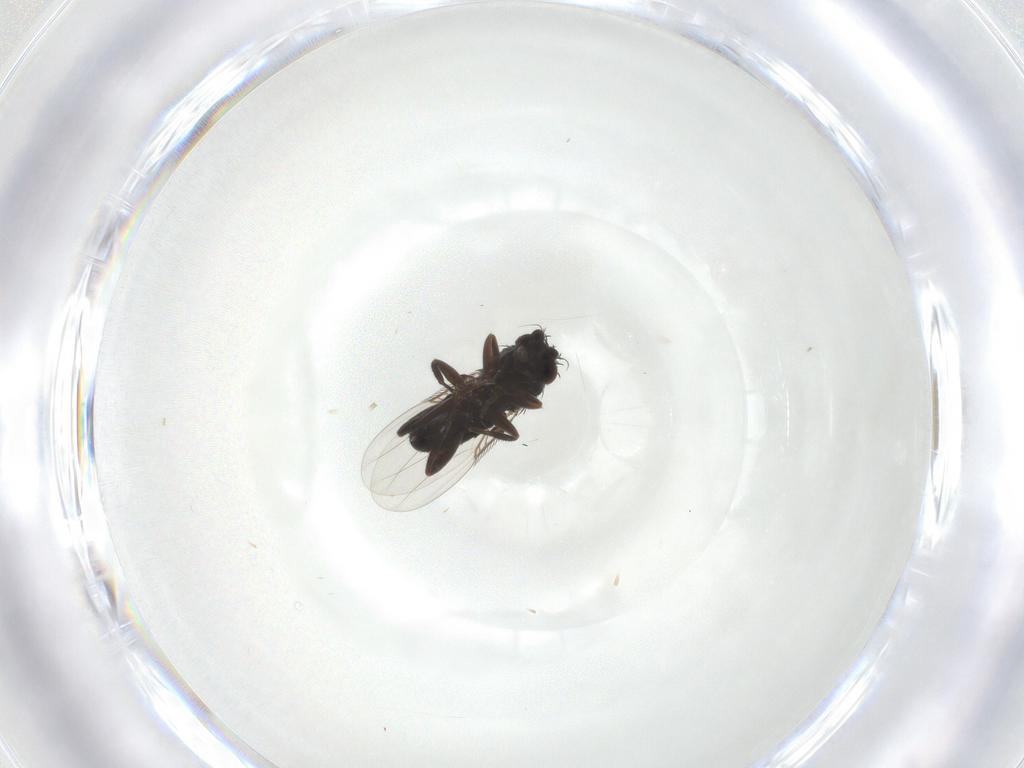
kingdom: Animalia
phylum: Arthropoda
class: Insecta
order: Diptera
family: Phoridae
